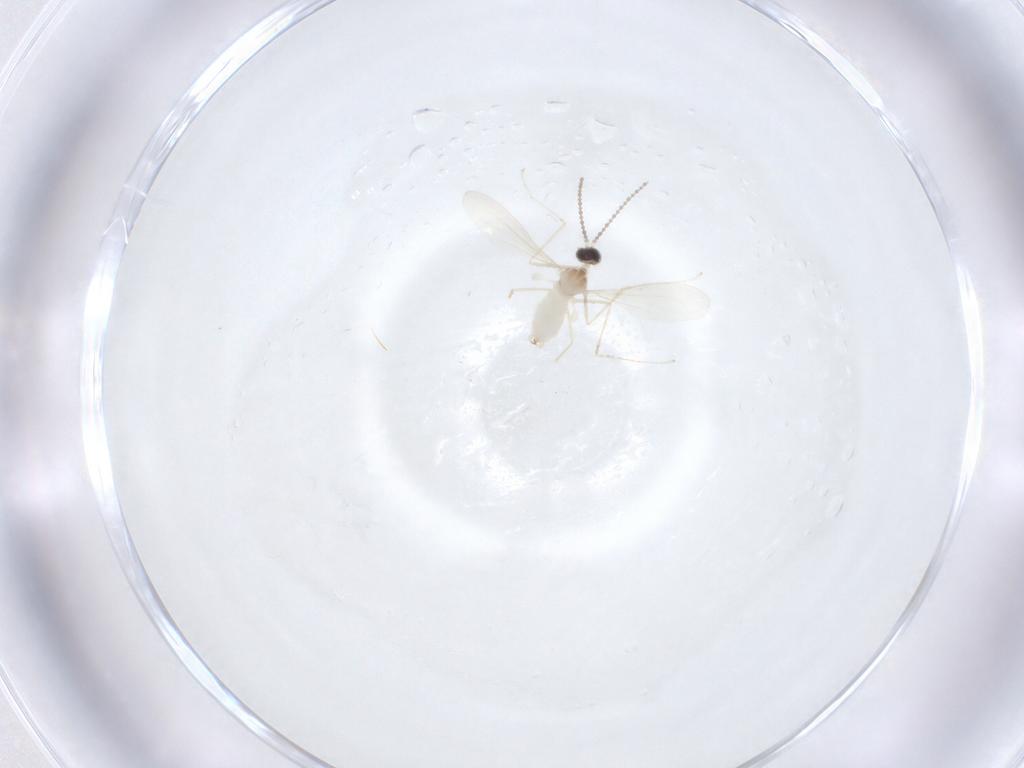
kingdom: Animalia
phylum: Arthropoda
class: Insecta
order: Diptera
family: Cecidomyiidae
